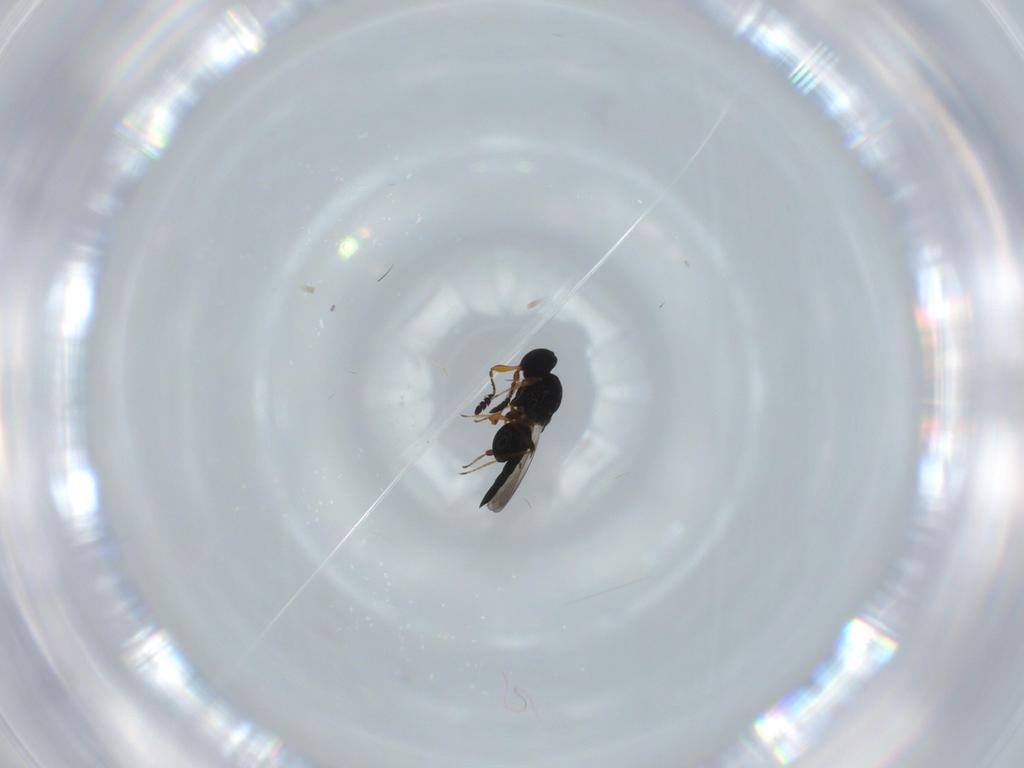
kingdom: Animalia
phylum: Arthropoda
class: Insecta
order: Hymenoptera
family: Platygastridae
